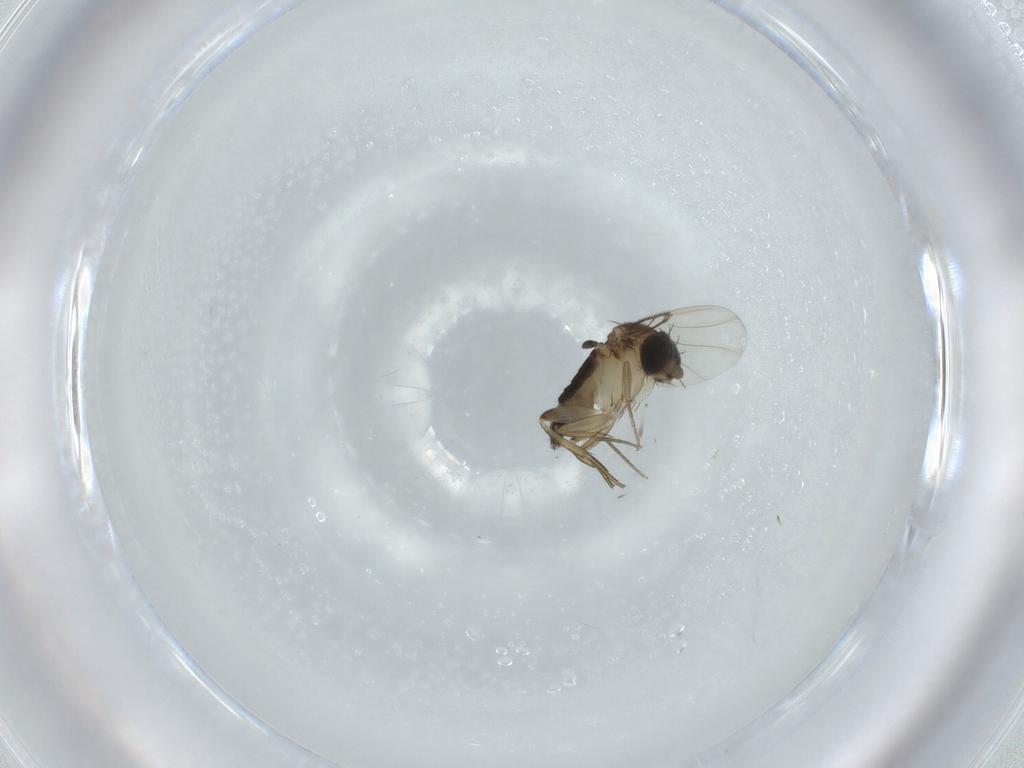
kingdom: Animalia
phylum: Arthropoda
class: Insecta
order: Diptera
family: Phoridae
